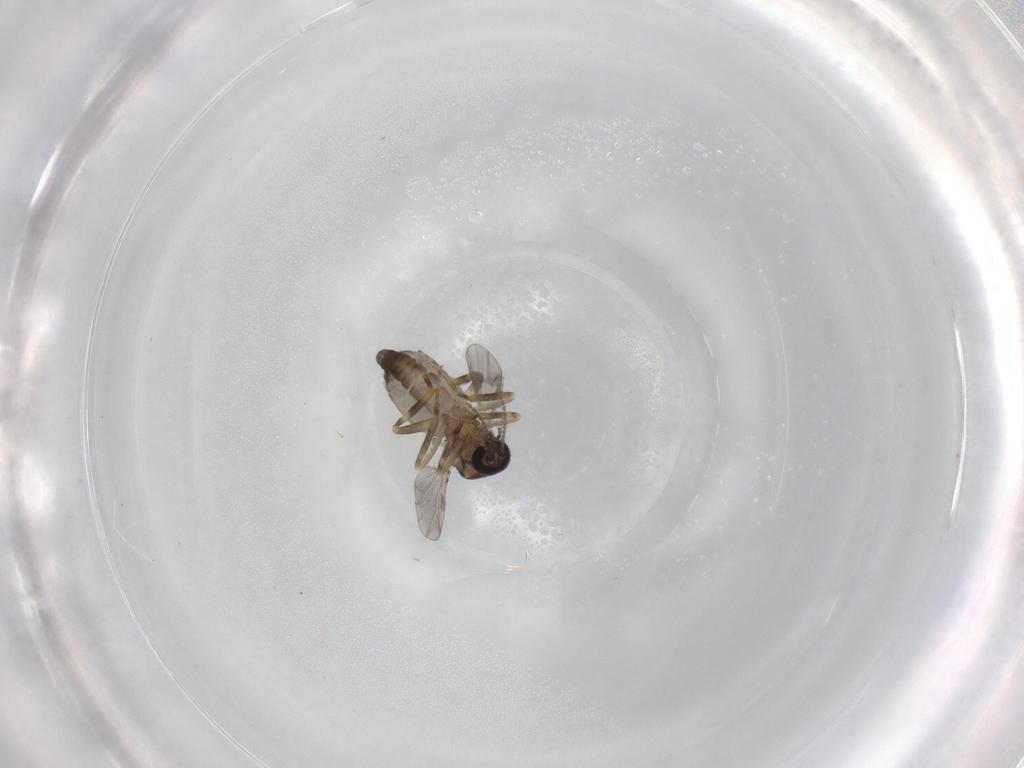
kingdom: Animalia
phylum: Arthropoda
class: Insecta
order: Diptera
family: Ceratopogonidae
